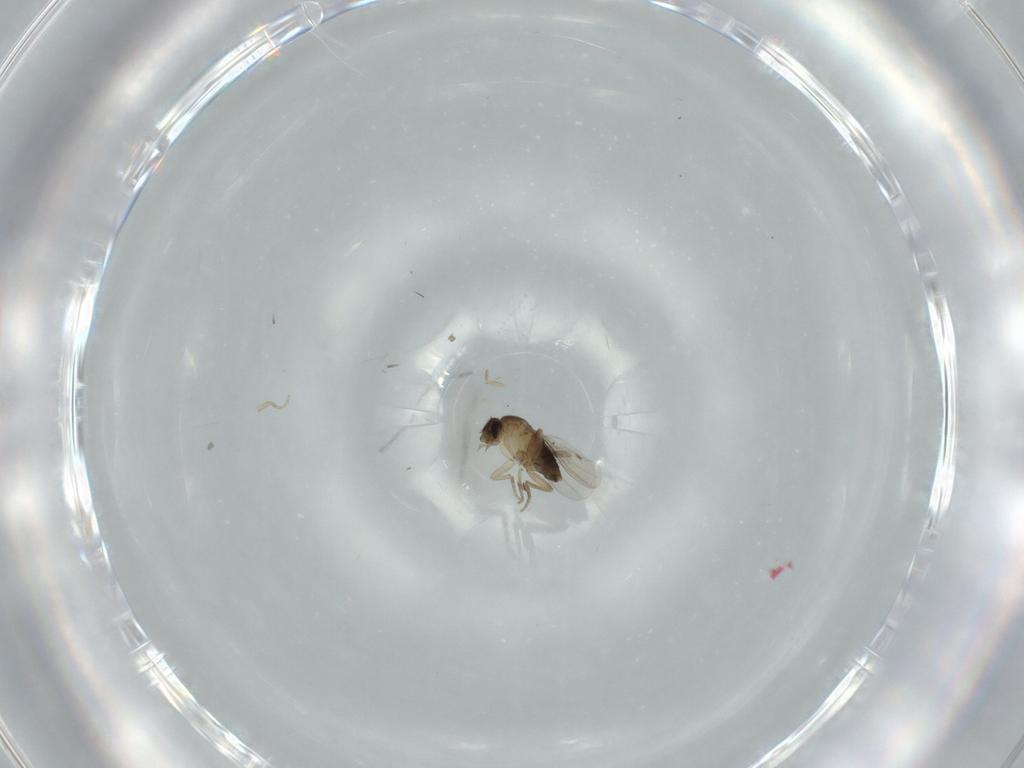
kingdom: Animalia
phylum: Arthropoda
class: Insecta
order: Diptera
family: Phoridae
